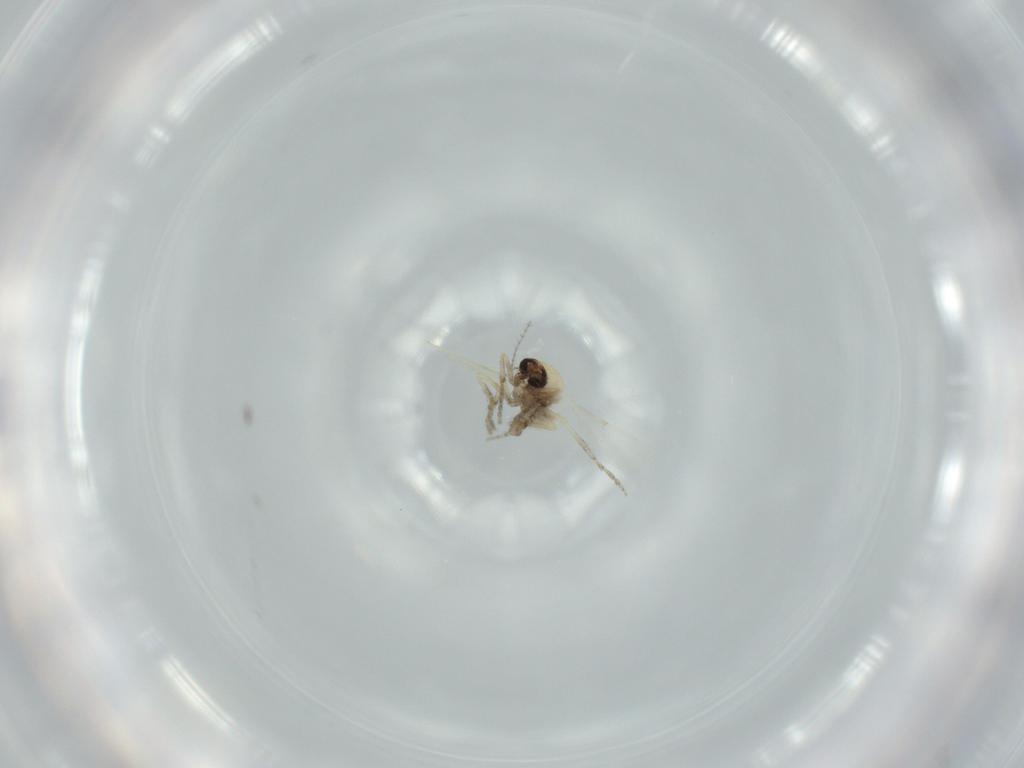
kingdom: Animalia
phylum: Arthropoda
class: Insecta
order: Diptera
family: Ceratopogonidae
